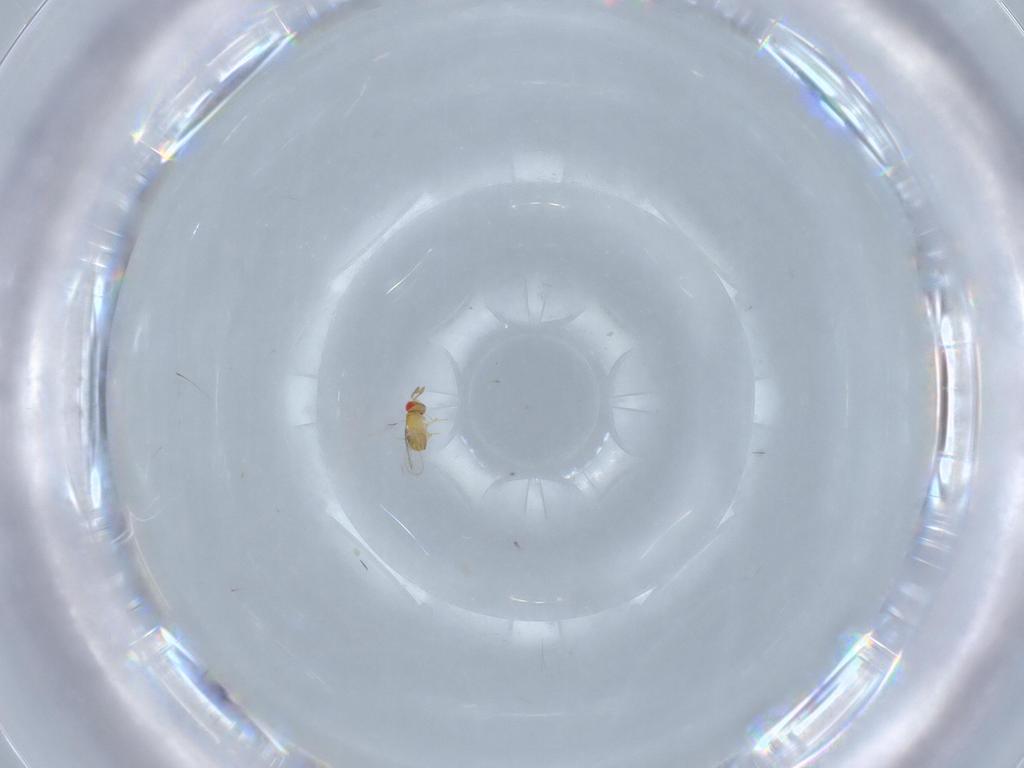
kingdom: Animalia
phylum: Arthropoda
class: Insecta
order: Hymenoptera
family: Trichogrammatidae
